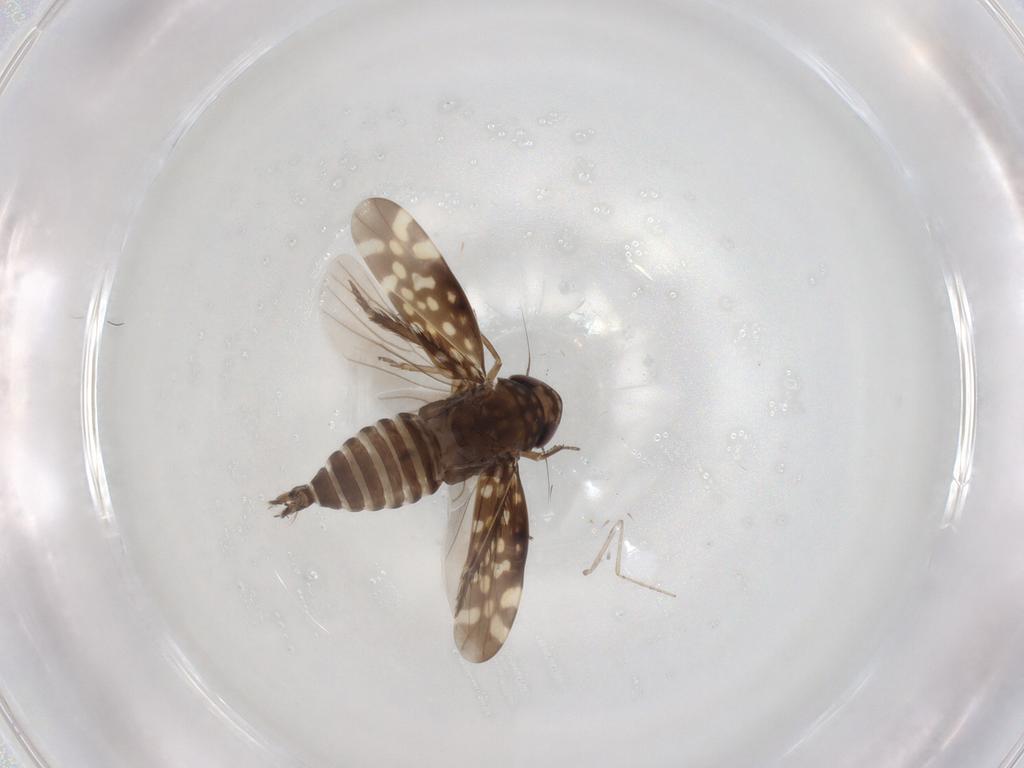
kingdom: Animalia
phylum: Arthropoda
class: Insecta
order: Hemiptera
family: Cicadellidae
